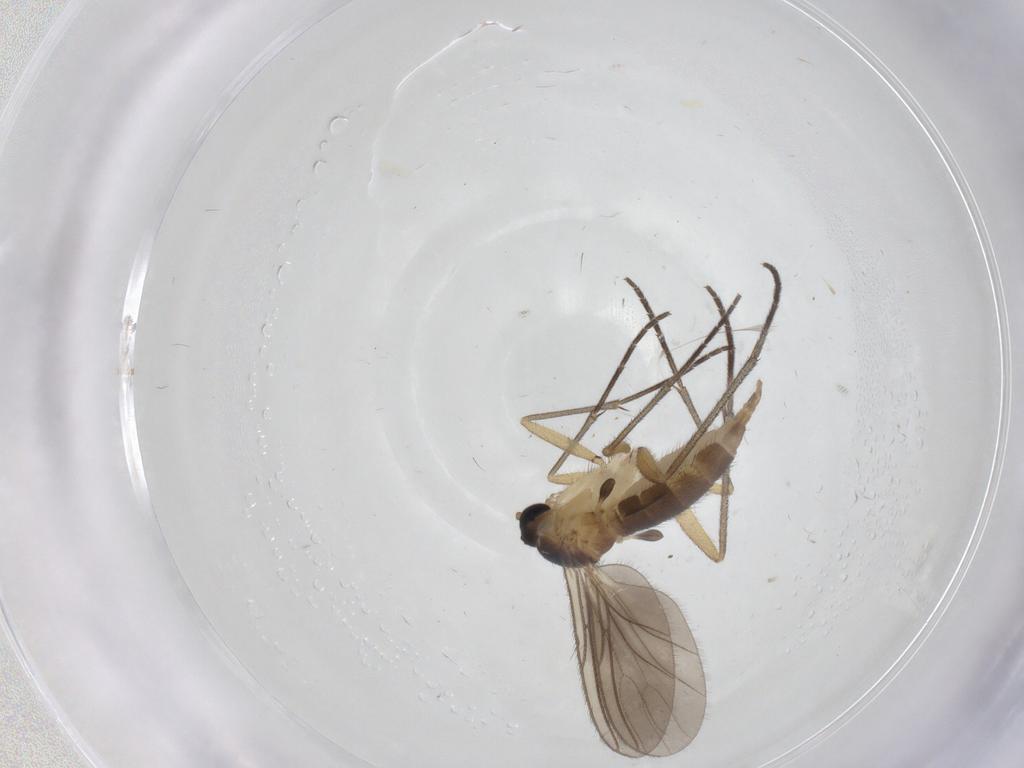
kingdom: Animalia
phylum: Arthropoda
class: Insecta
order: Diptera
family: Sciaridae
